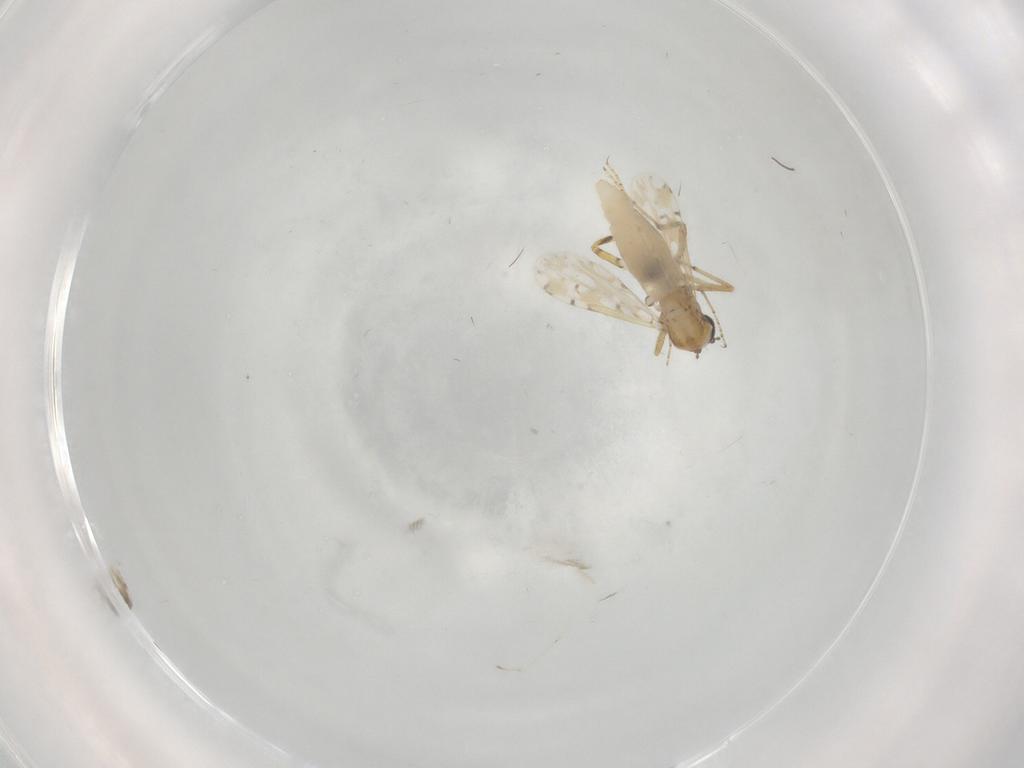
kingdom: Animalia
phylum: Arthropoda
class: Insecta
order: Diptera
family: Ceratopogonidae
